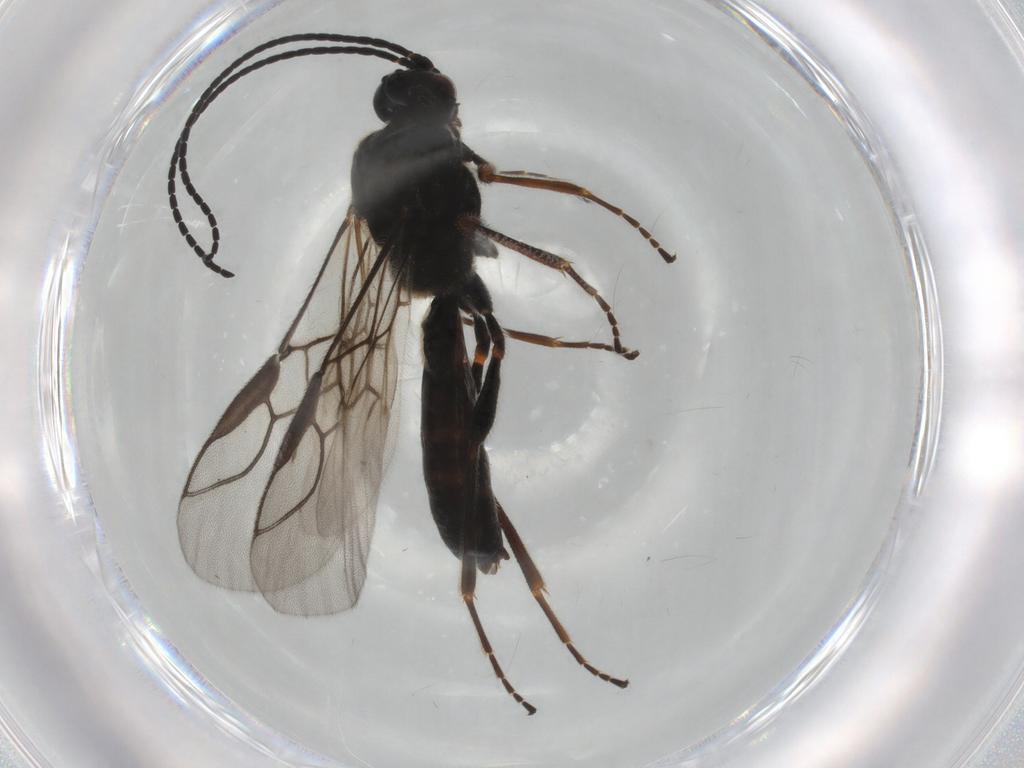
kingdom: Animalia
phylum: Arthropoda
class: Insecta
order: Hymenoptera
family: Braconidae
